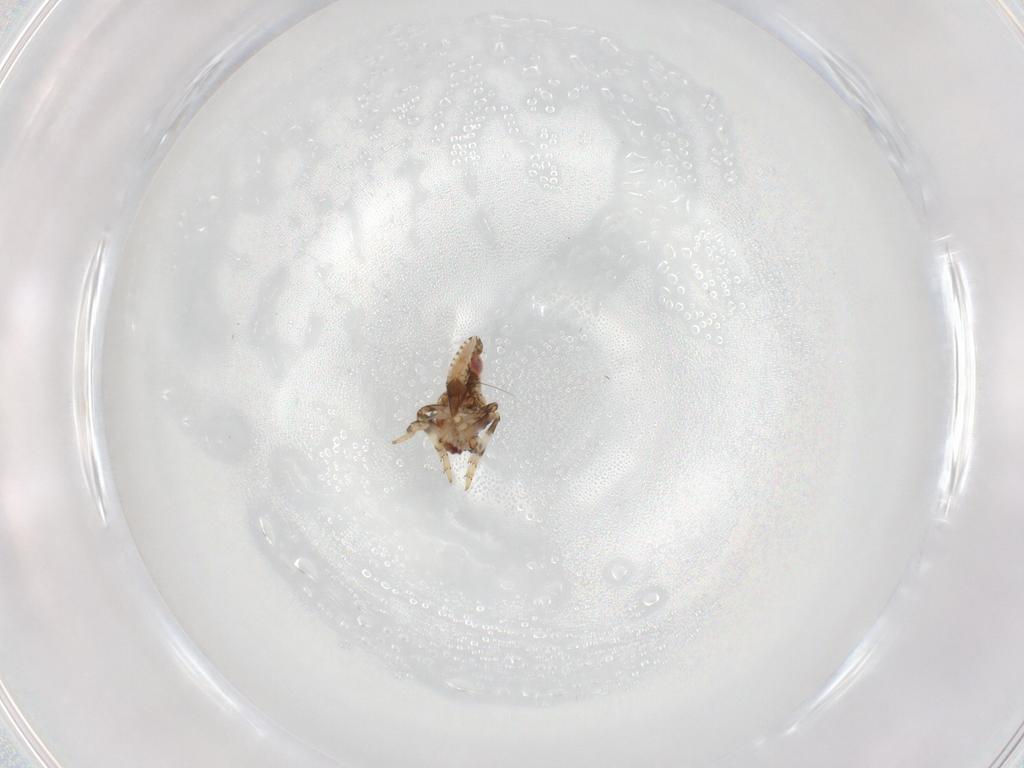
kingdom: Animalia
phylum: Arthropoda
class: Insecta
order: Hemiptera
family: Tropiduchidae
